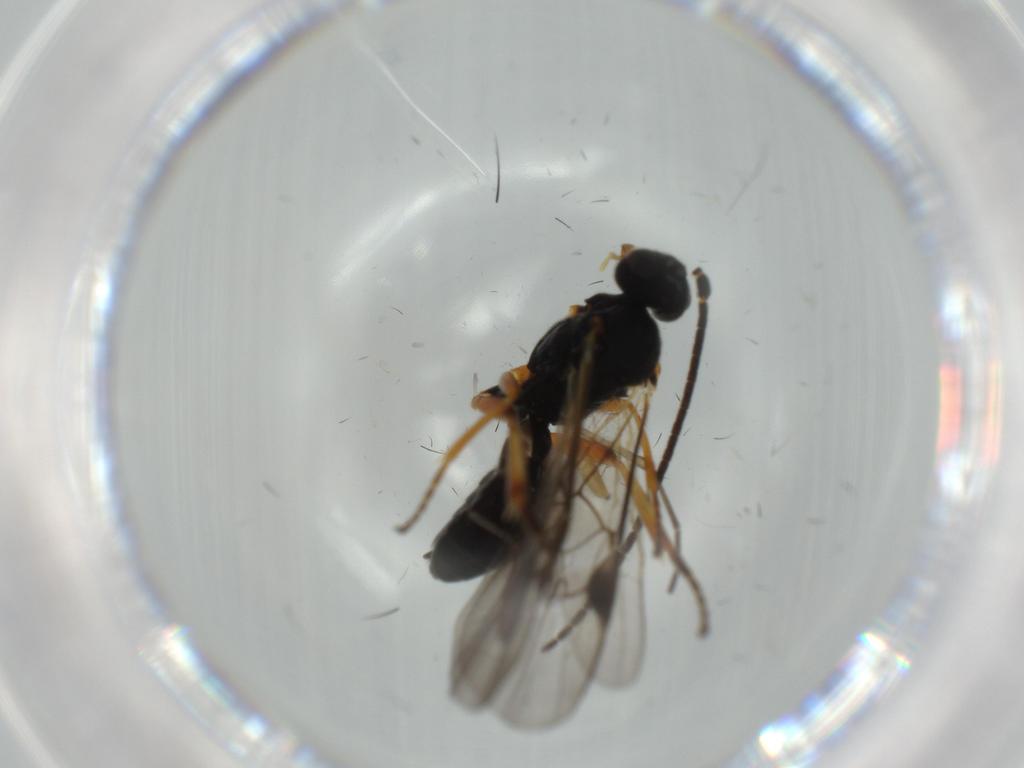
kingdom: Animalia
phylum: Arthropoda
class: Insecta
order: Hymenoptera
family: Braconidae
